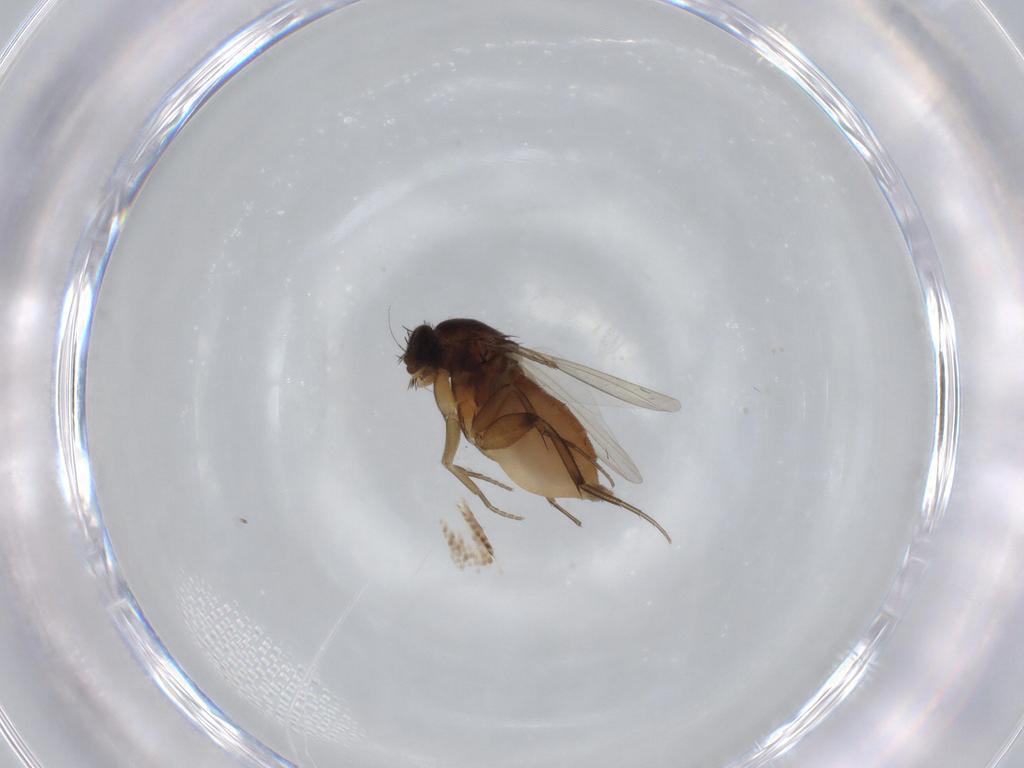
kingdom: Animalia
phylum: Arthropoda
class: Insecta
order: Diptera
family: Phoridae
